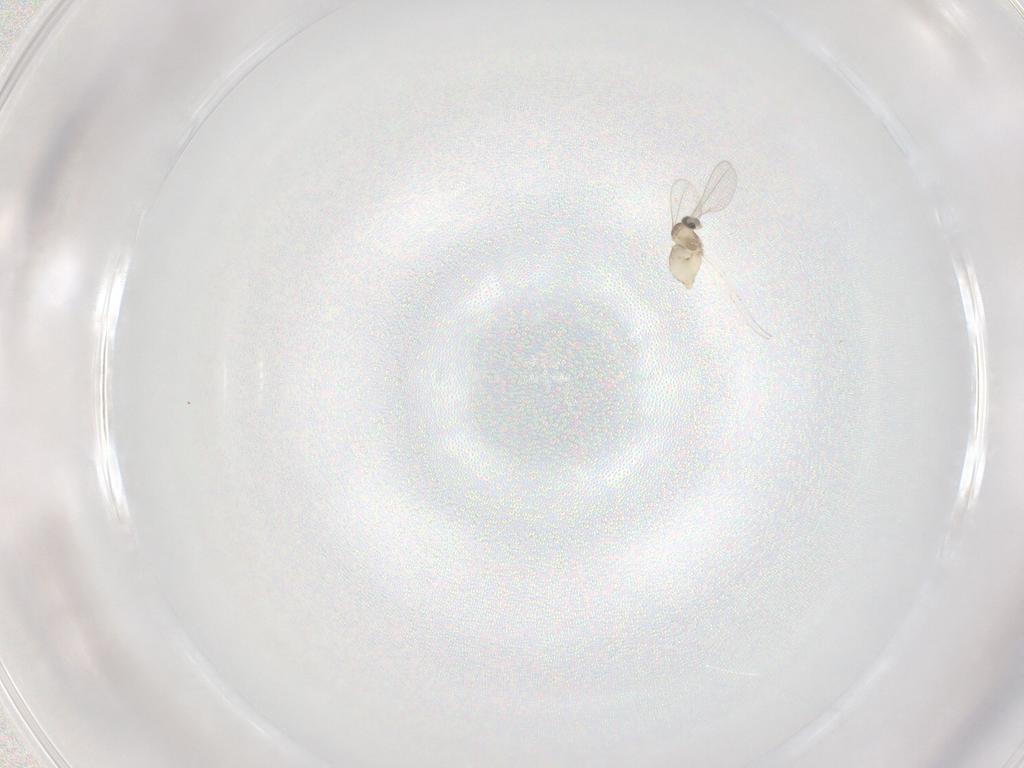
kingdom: Animalia
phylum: Arthropoda
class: Insecta
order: Diptera
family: Cecidomyiidae
